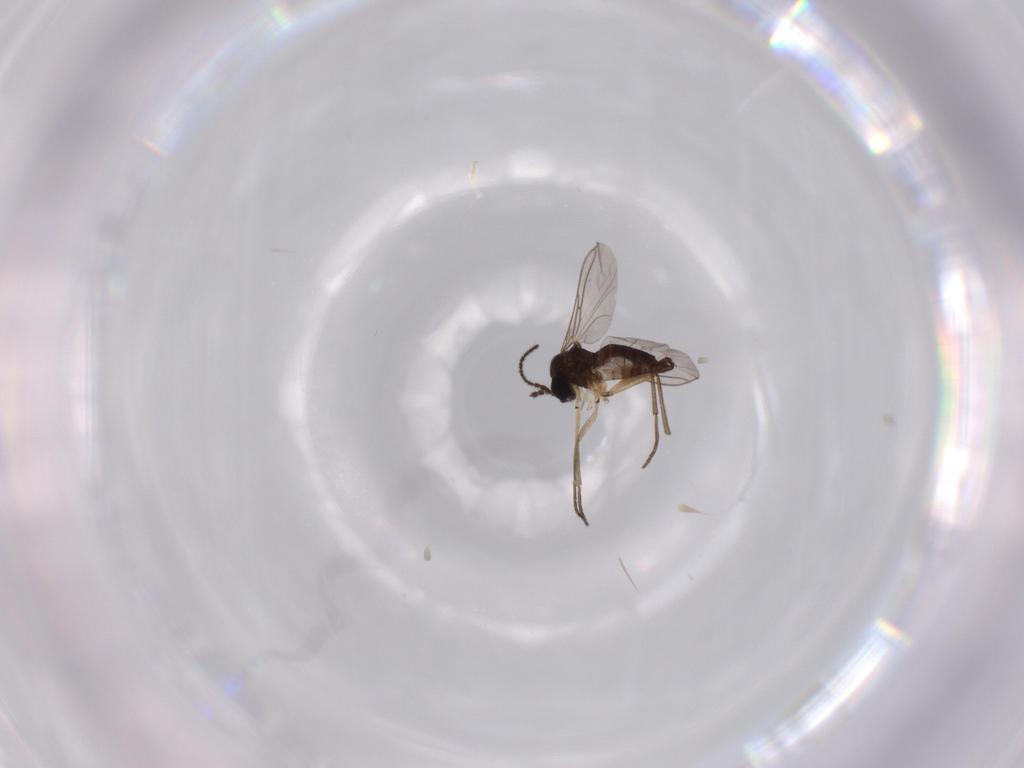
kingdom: Animalia
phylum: Arthropoda
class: Insecta
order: Diptera
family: Sciaridae
